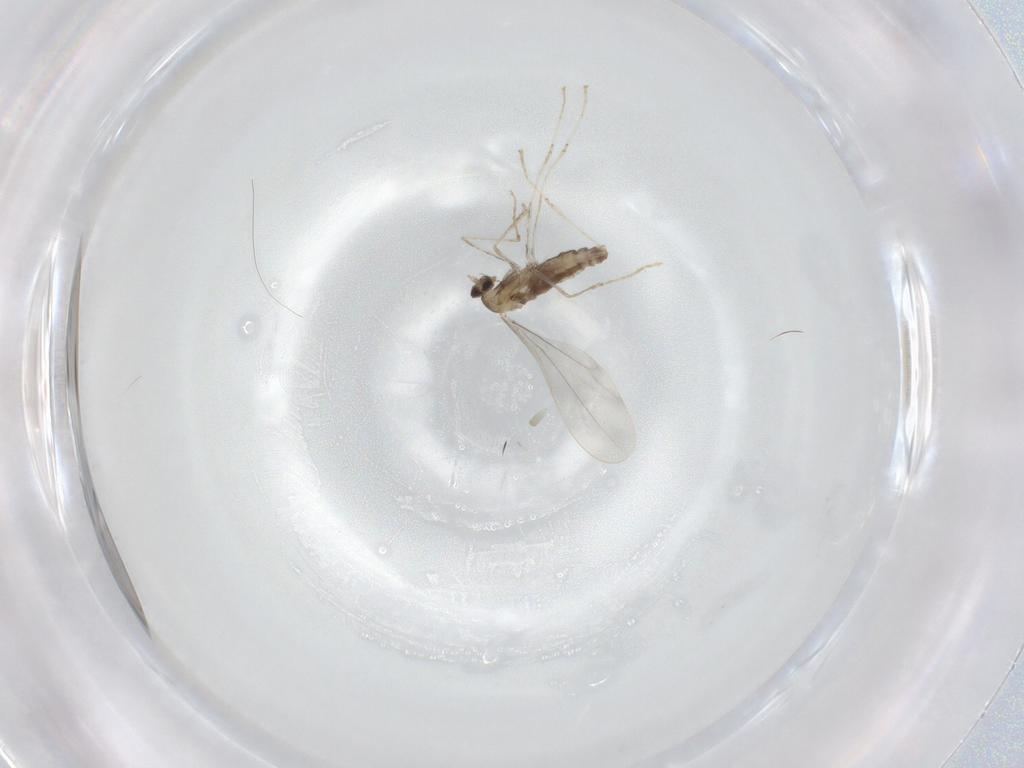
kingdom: Animalia
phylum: Arthropoda
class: Insecta
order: Diptera
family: Cecidomyiidae
